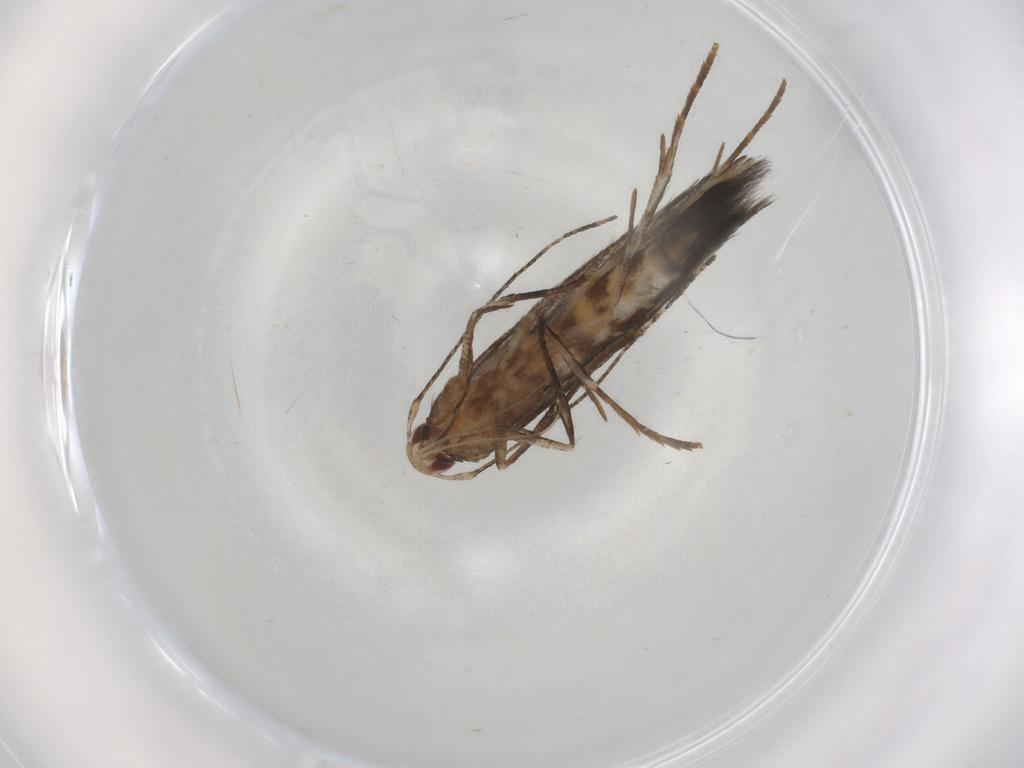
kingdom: Animalia
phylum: Arthropoda
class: Insecta
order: Lepidoptera
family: Cosmopterigidae
